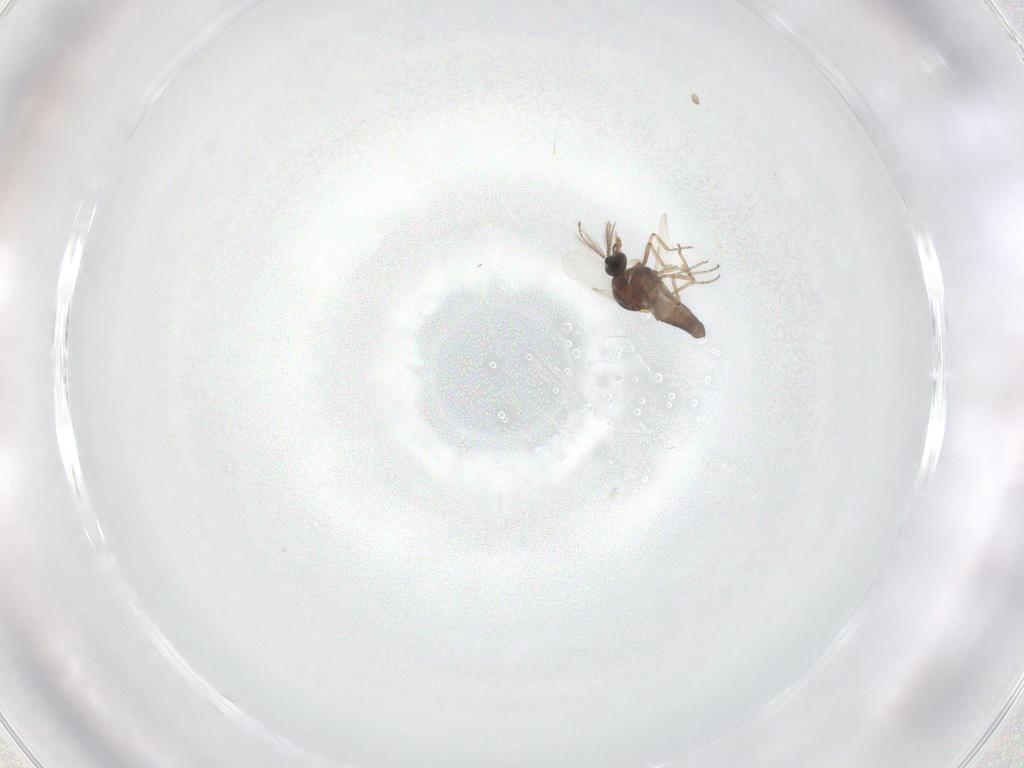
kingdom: Animalia
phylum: Arthropoda
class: Insecta
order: Diptera
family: Ceratopogonidae
